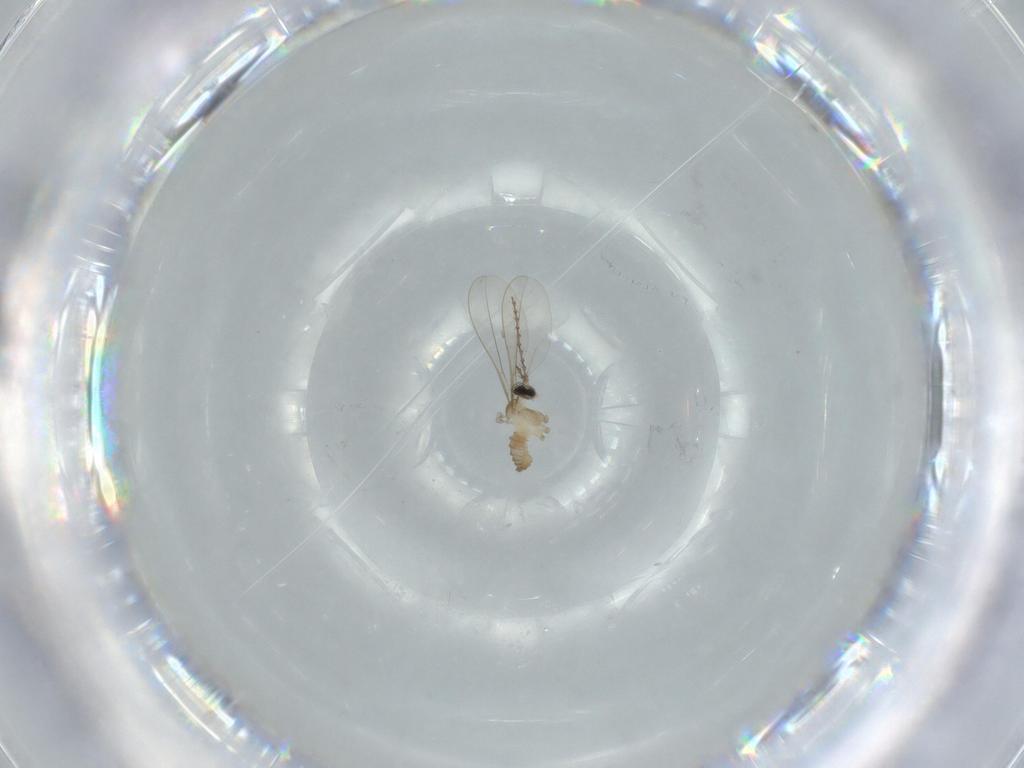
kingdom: Animalia
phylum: Arthropoda
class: Insecta
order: Diptera
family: Cecidomyiidae
